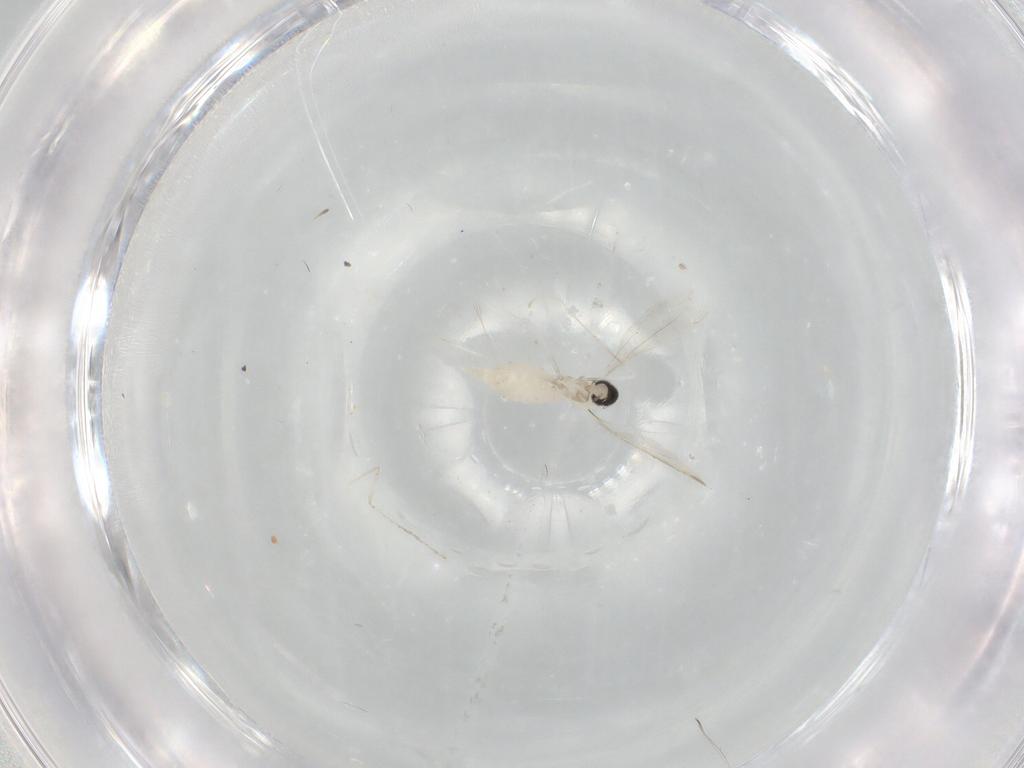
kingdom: Animalia
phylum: Arthropoda
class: Insecta
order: Diptera
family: Cecidomyiidae
